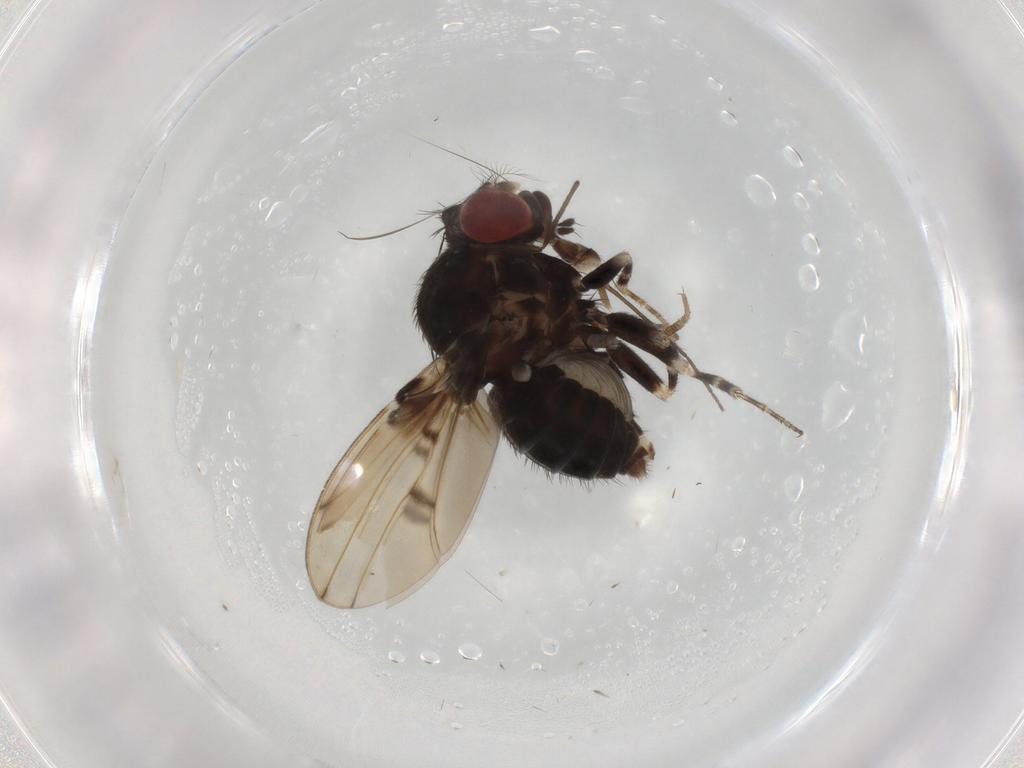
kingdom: Animalia
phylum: Arthropoda
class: Insecta
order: Diptera
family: Drosophilidae
